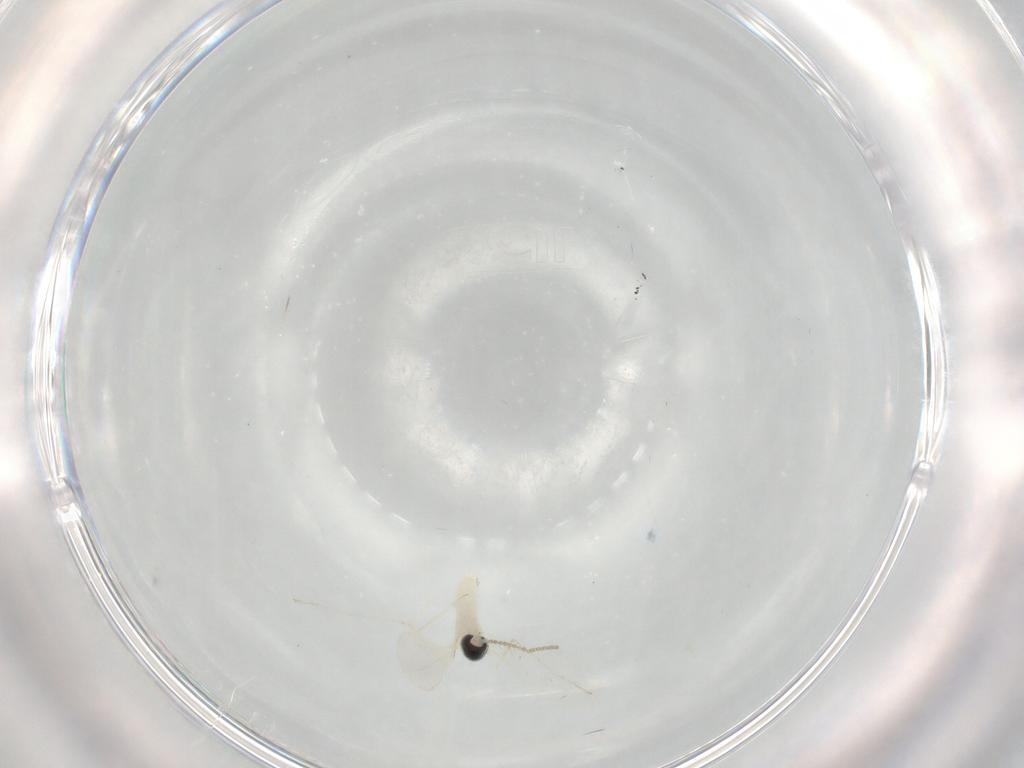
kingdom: Animalia
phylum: Arthropoda
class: Insecta
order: Diptera
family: Cecidomyiidae
